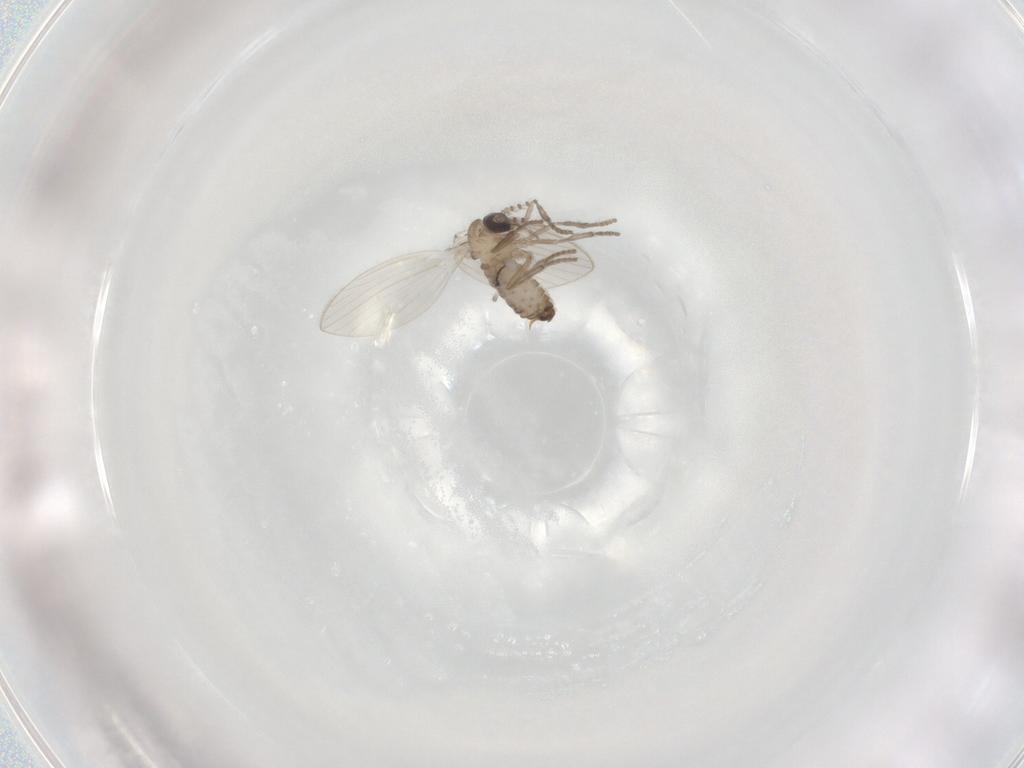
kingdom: Animalia
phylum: Arthropoda
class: Insecta
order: Diptera
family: Psychodidae
